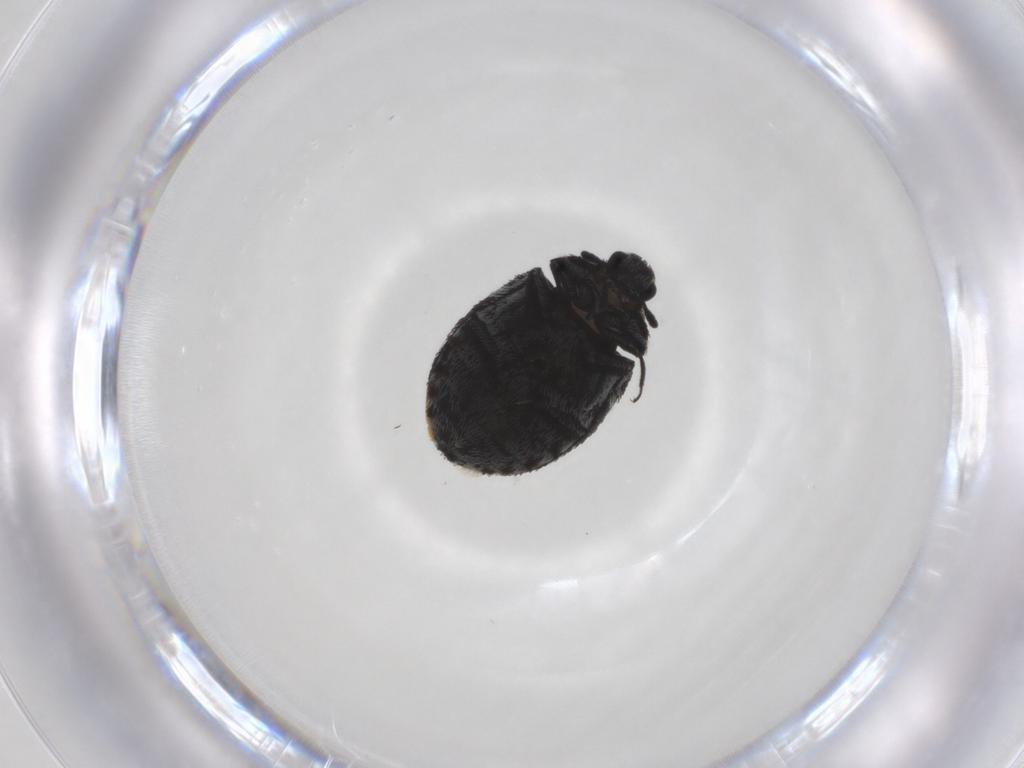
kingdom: Animalia
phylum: Arthropoda
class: Insecta
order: Coleoptera
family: Dermestidae
